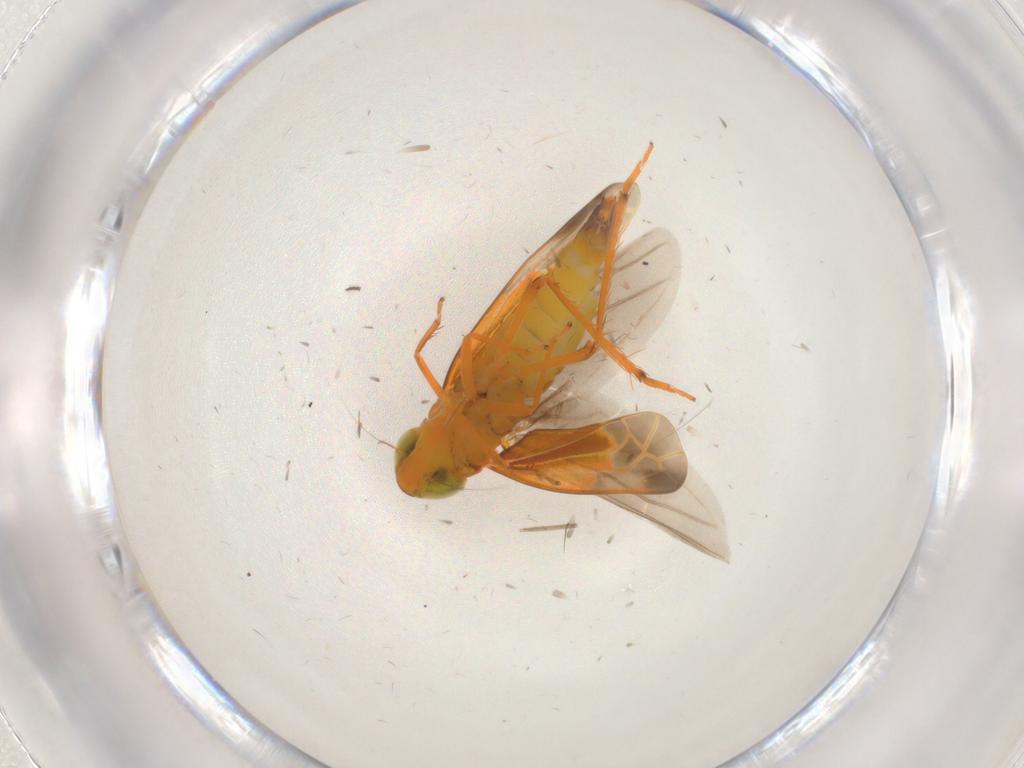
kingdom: Animalia
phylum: Arthropoda
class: Insecta
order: Hemiptera
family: Cicadellidae
